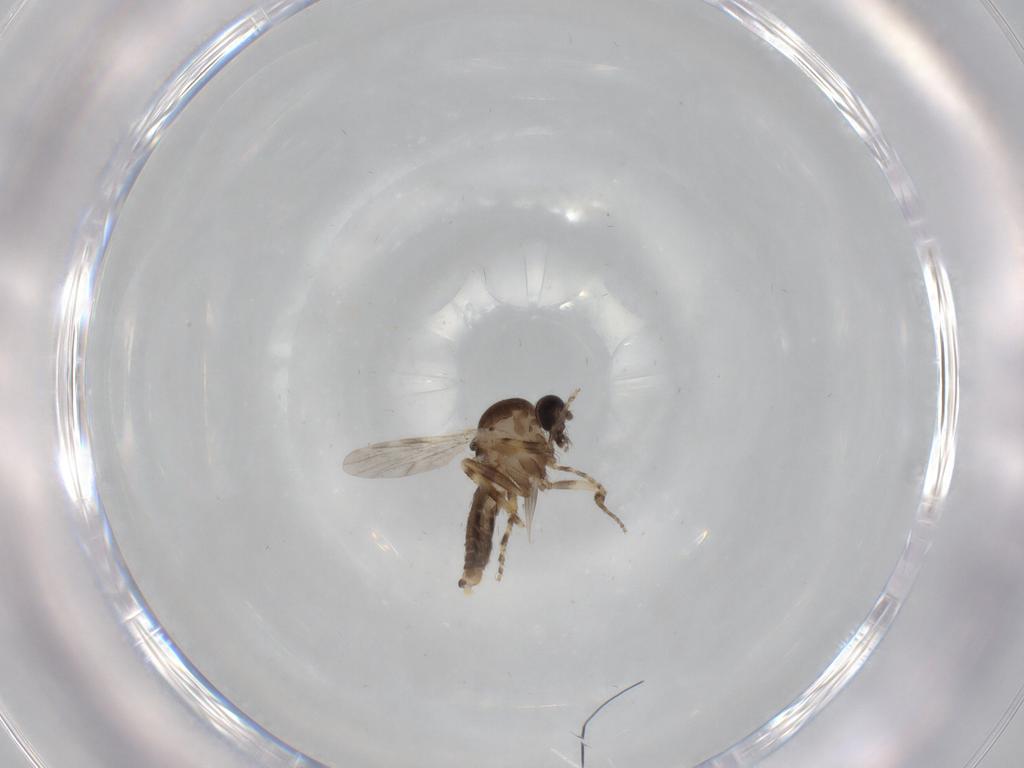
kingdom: Animalia
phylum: Arthropoda
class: Insecta
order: Diptera
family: Ceratopogonidae
